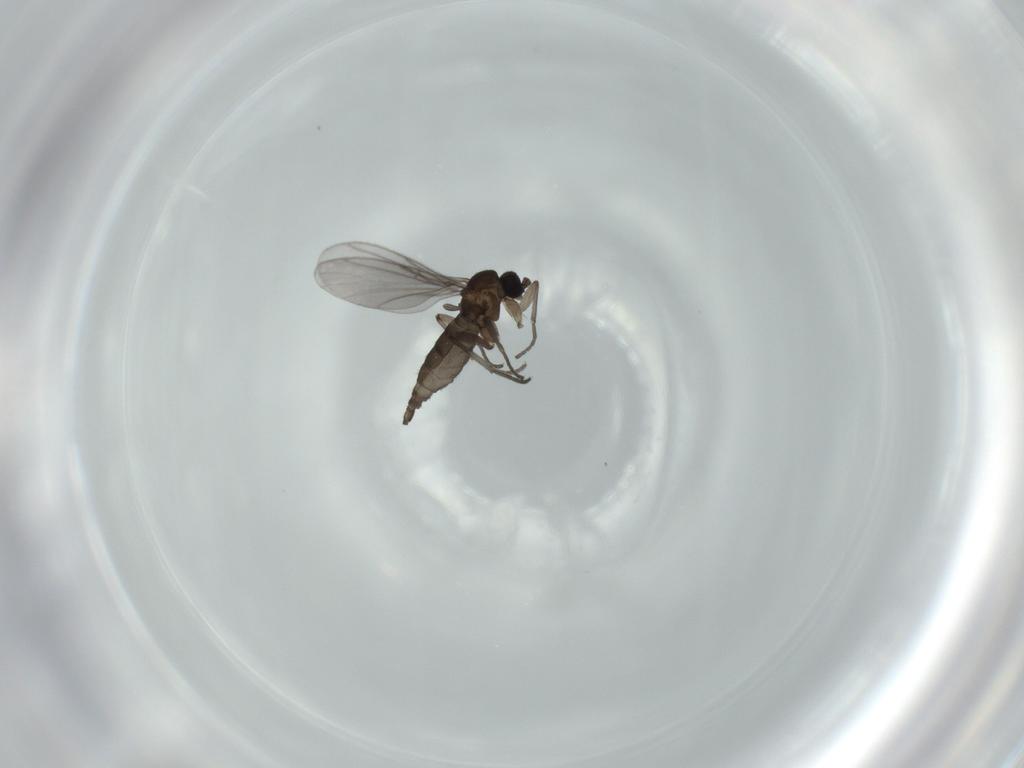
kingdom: Animalia
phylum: Arthropoda
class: Insecta
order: Diptera
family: Cecidomyiidae
